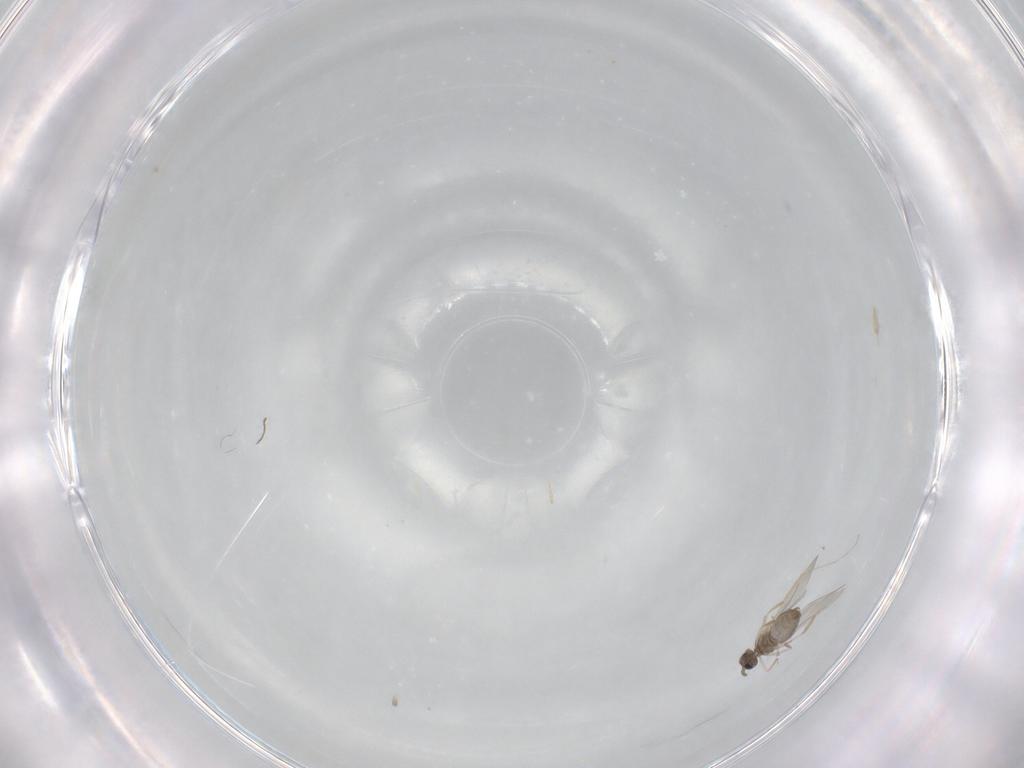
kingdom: Animalia
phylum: Arthropoda
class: Insecta
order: Diptera
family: Cecidomyiidae
